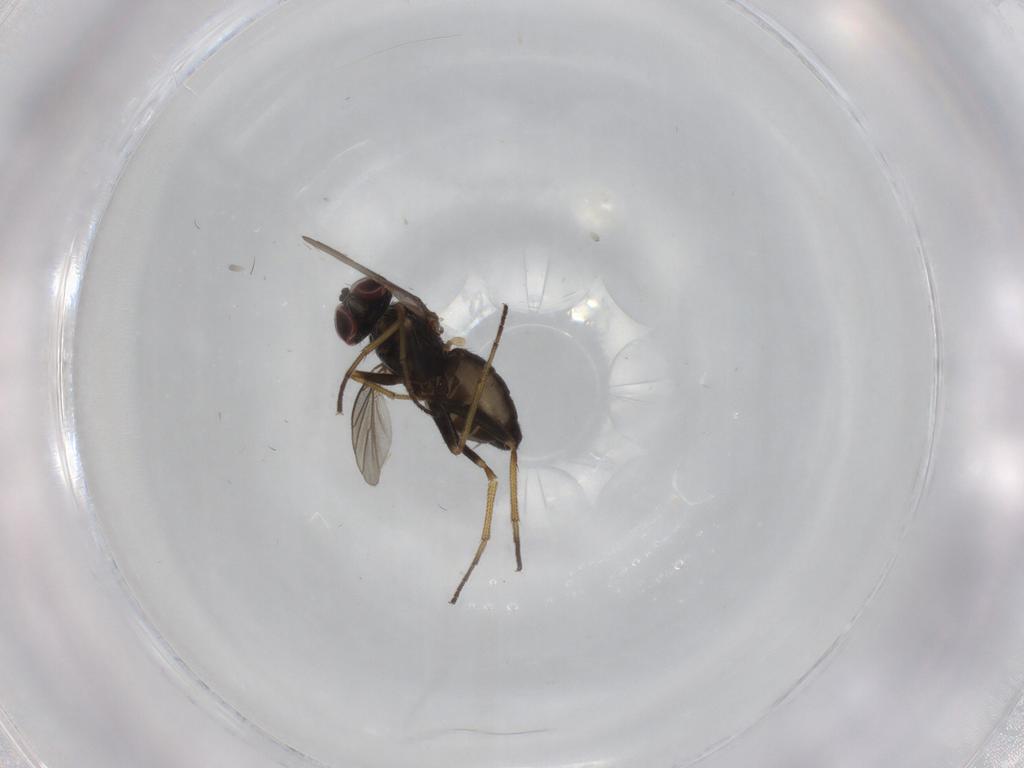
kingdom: Animalia
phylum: Arthropoda
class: Insecta
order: Diptera
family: Dolichopodidae
